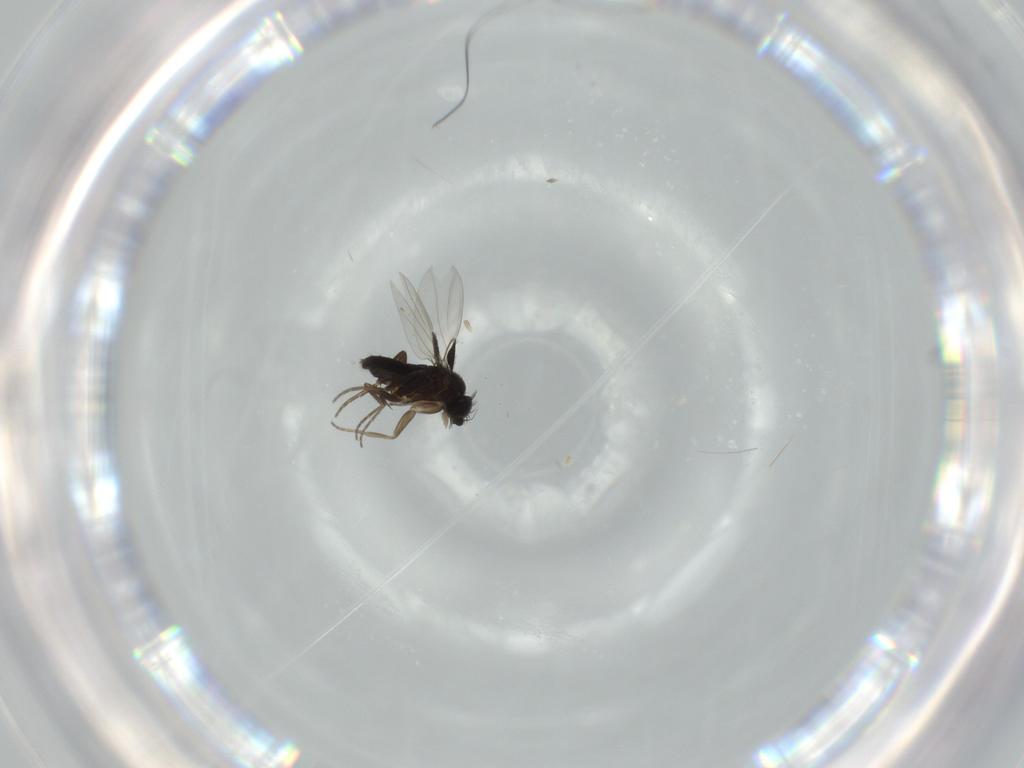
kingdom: Animalia
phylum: Arthropoda
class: Insecta
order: Diptera
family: Phoridae
